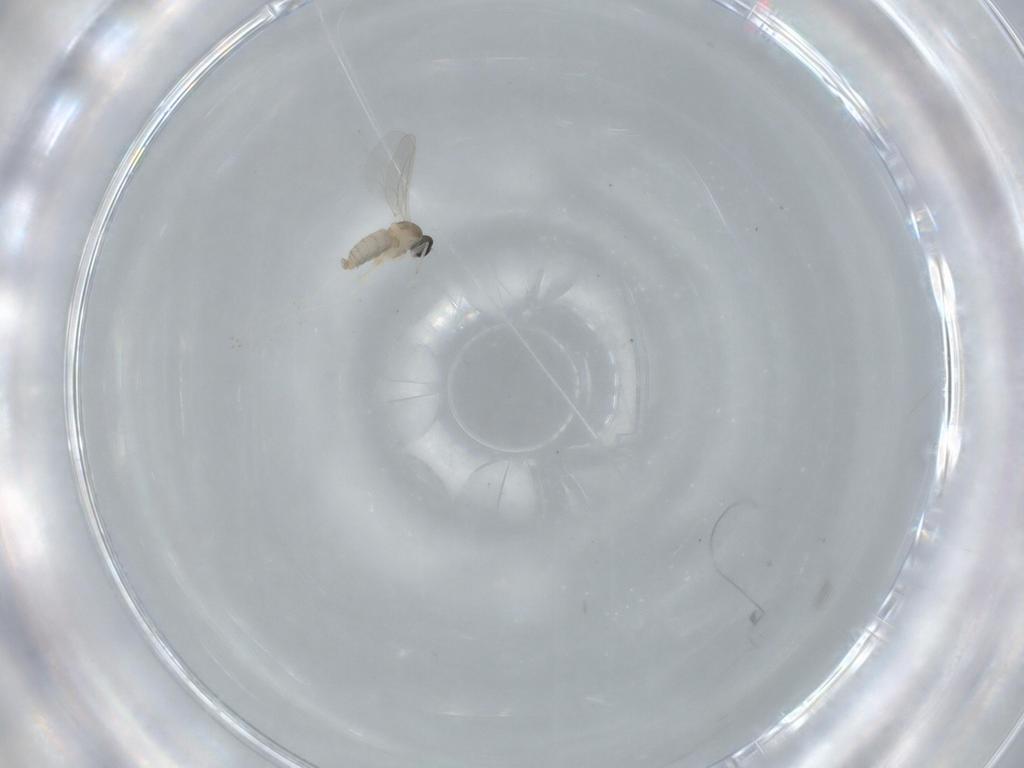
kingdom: Animalia
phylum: Arthropoda
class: Insecta
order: Diptera
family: Cecidomyiidae
